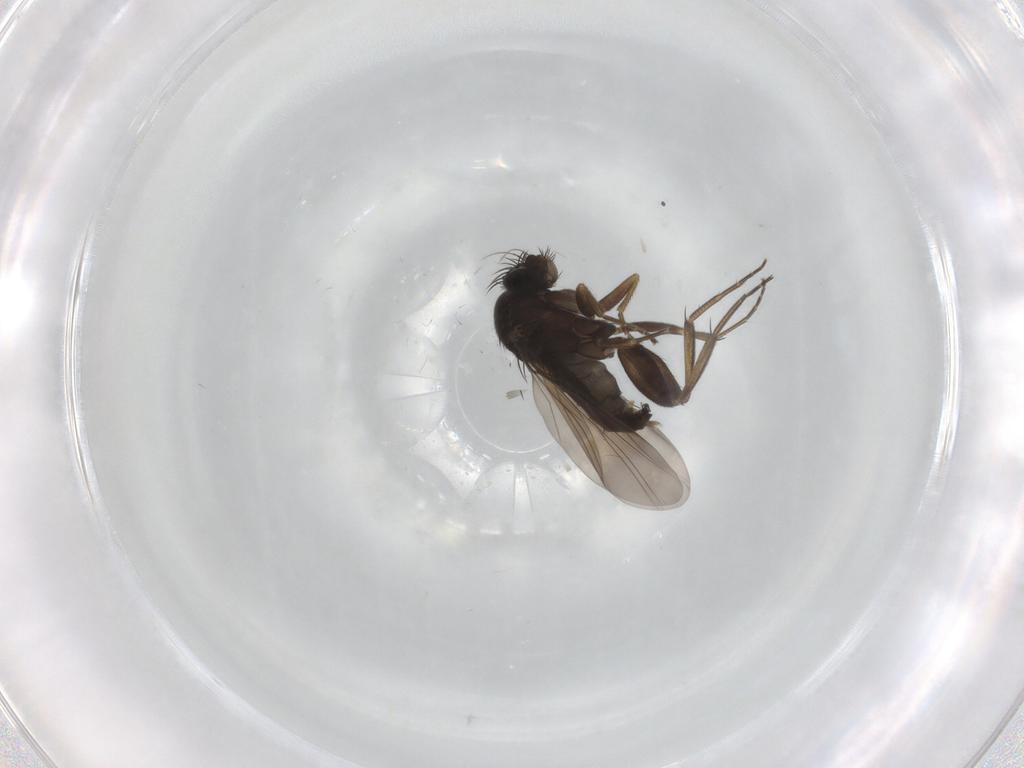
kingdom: Animalia
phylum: Arthropoda
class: Insecta
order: Diptera
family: Phoridae
